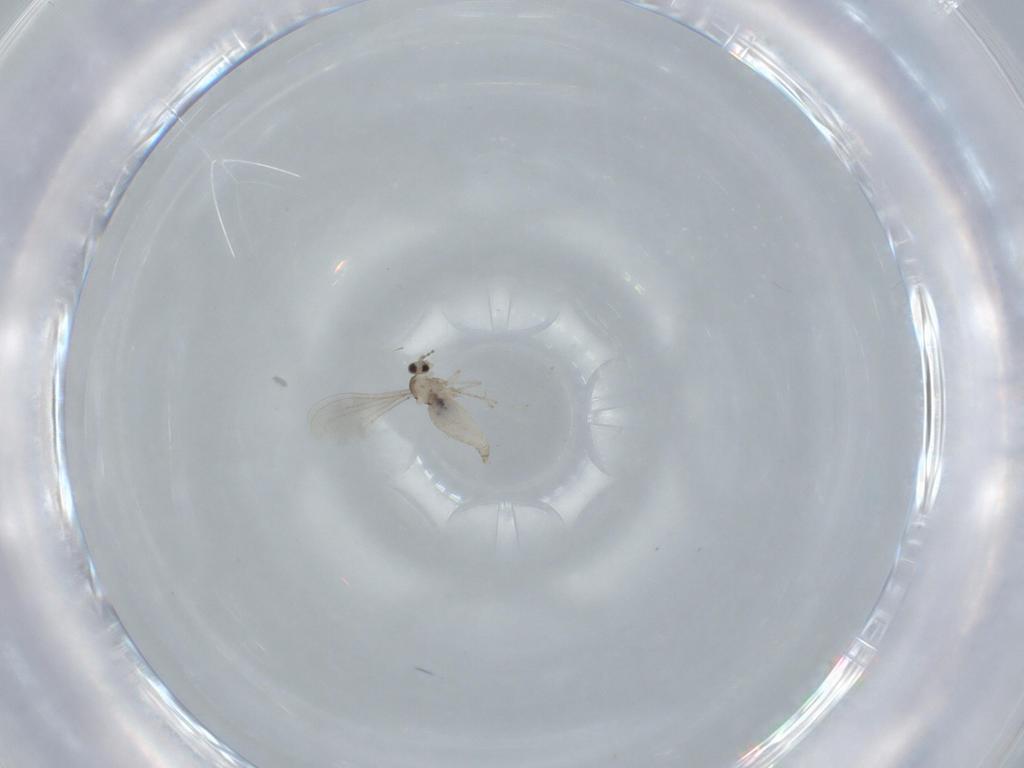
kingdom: Animalia
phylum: Arthropoda
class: Insecta
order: Diptera
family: Cecidomyiidae
